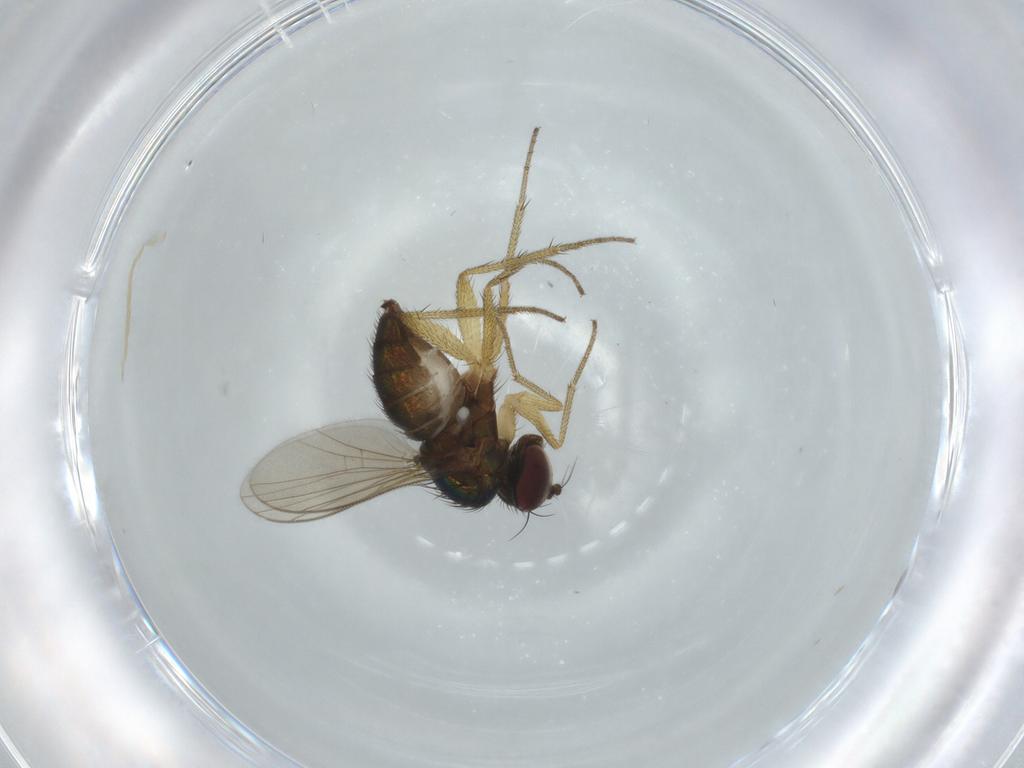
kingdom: Animalia
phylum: Arthropoda
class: Insecta
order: Diptera
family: Dolichopodidae
